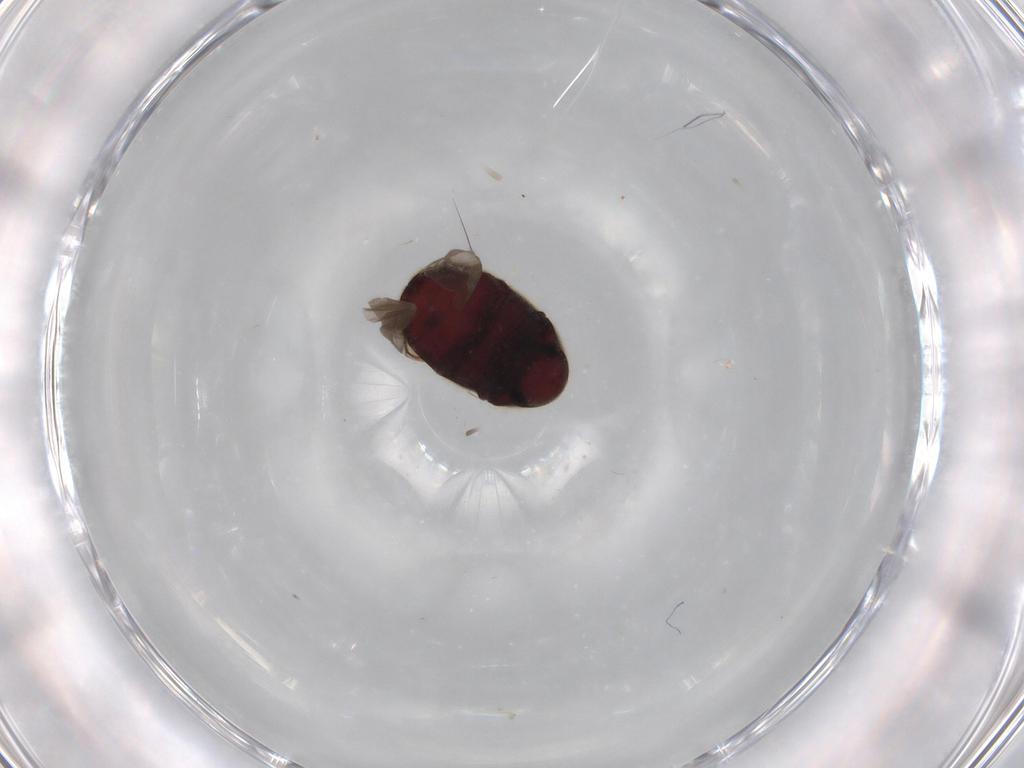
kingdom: Animalia
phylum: Arthropoda
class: Insecta
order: Coleoptera
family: Ptinidae
